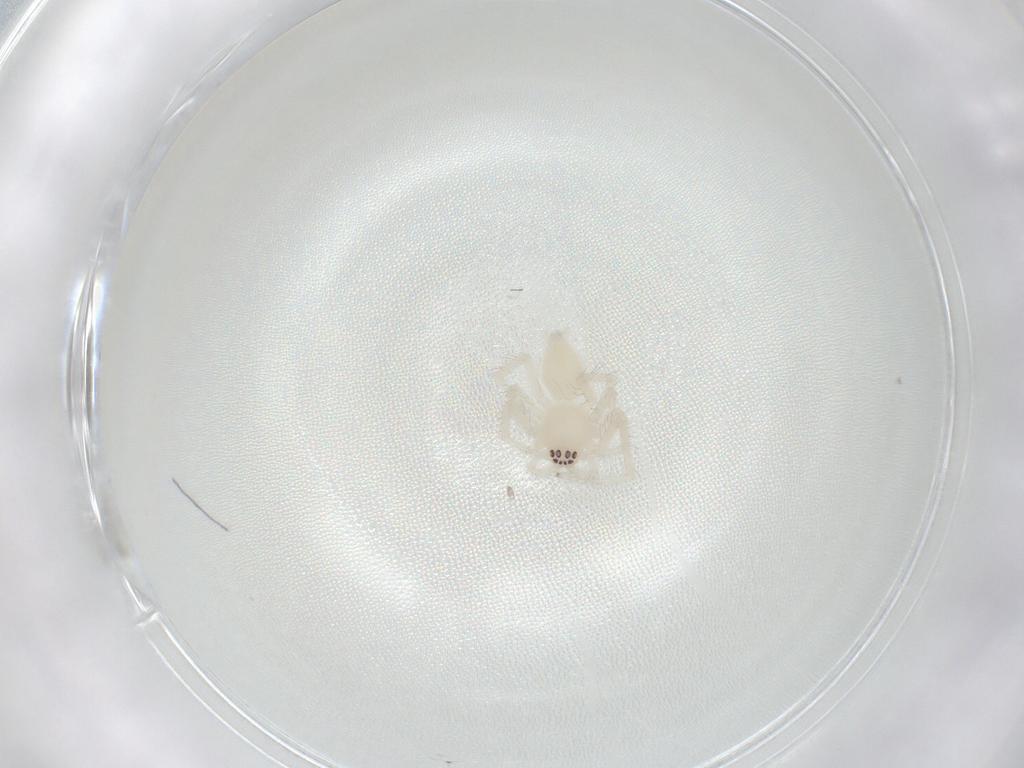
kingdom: Animalia
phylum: Arthropoda
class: Arachnida
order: Araneae
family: Anyphaenidae
